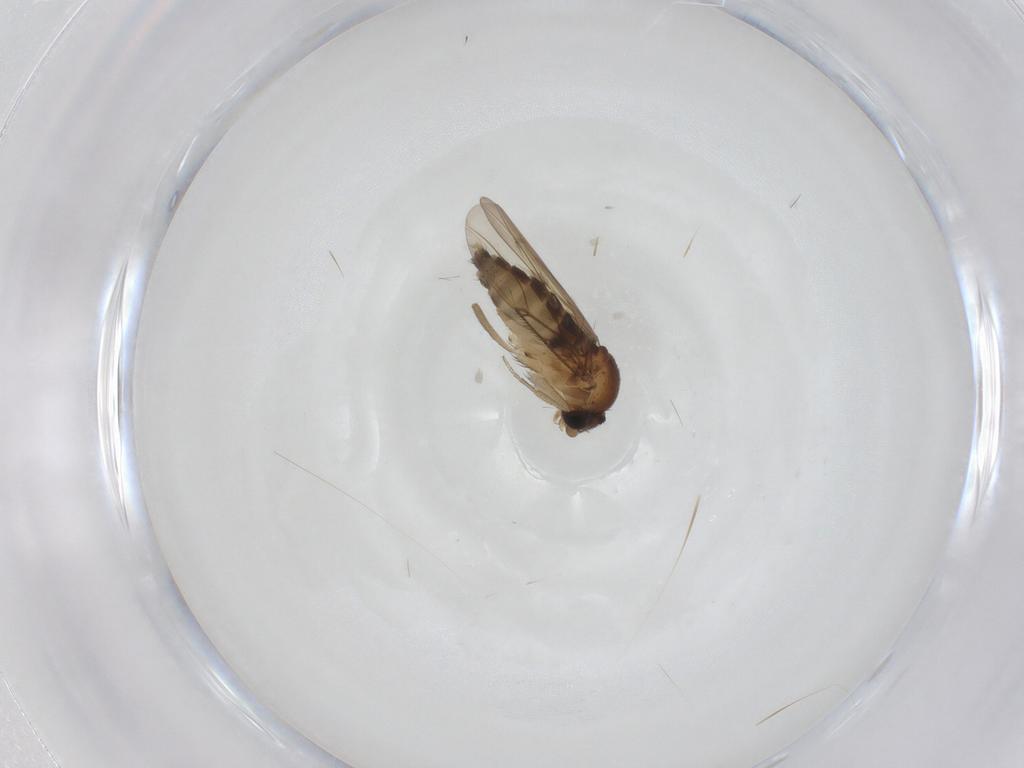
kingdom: Animalia
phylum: Arthropoda
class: Insecta
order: Diptera
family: Phoridae
